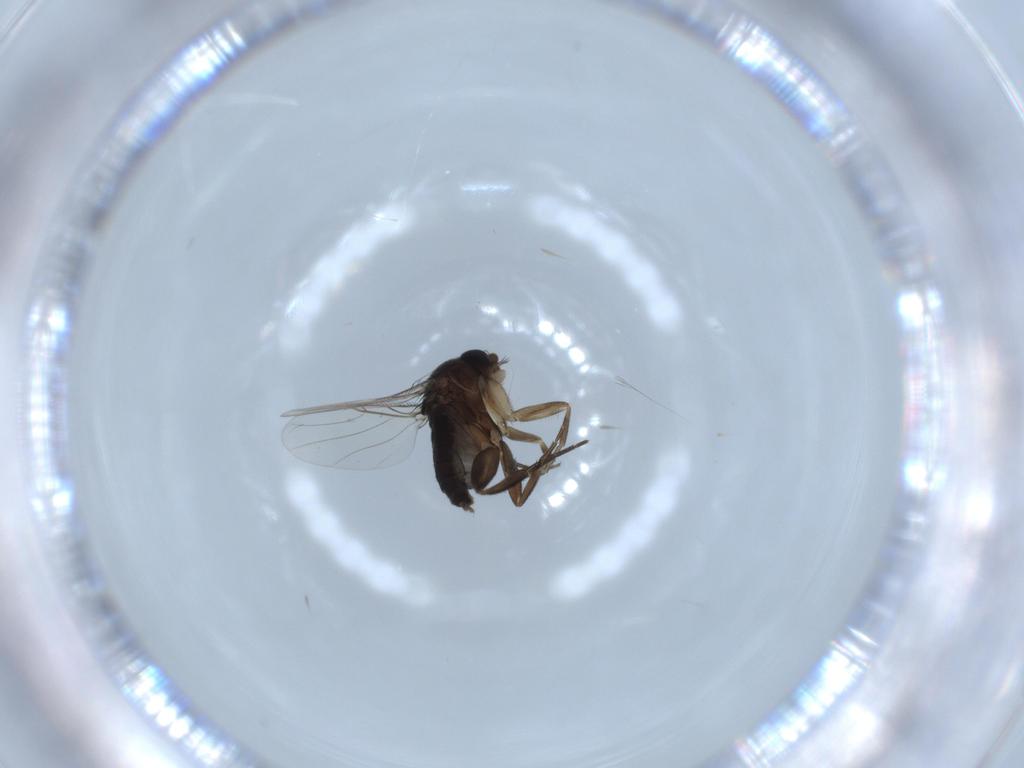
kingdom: Animalia
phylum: Arthropoda
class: Insecta
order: Diptera
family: Phoridae
